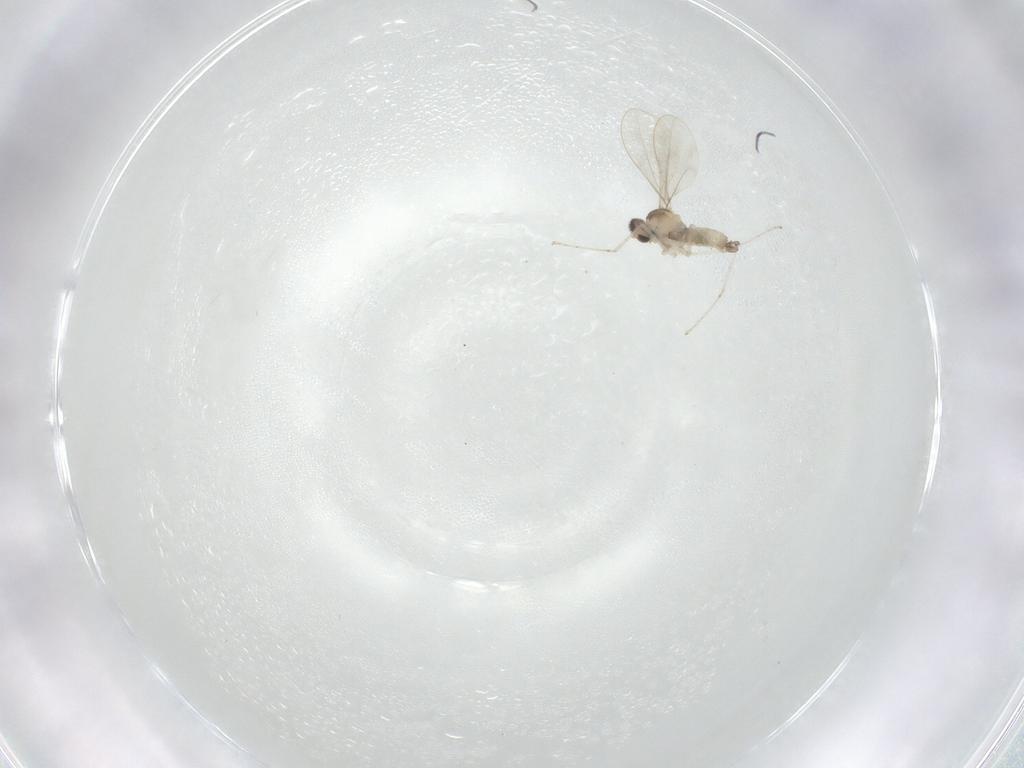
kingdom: Animalia
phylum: Arthropoda
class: Insecta
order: Diptera
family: Cecidomyiidae
